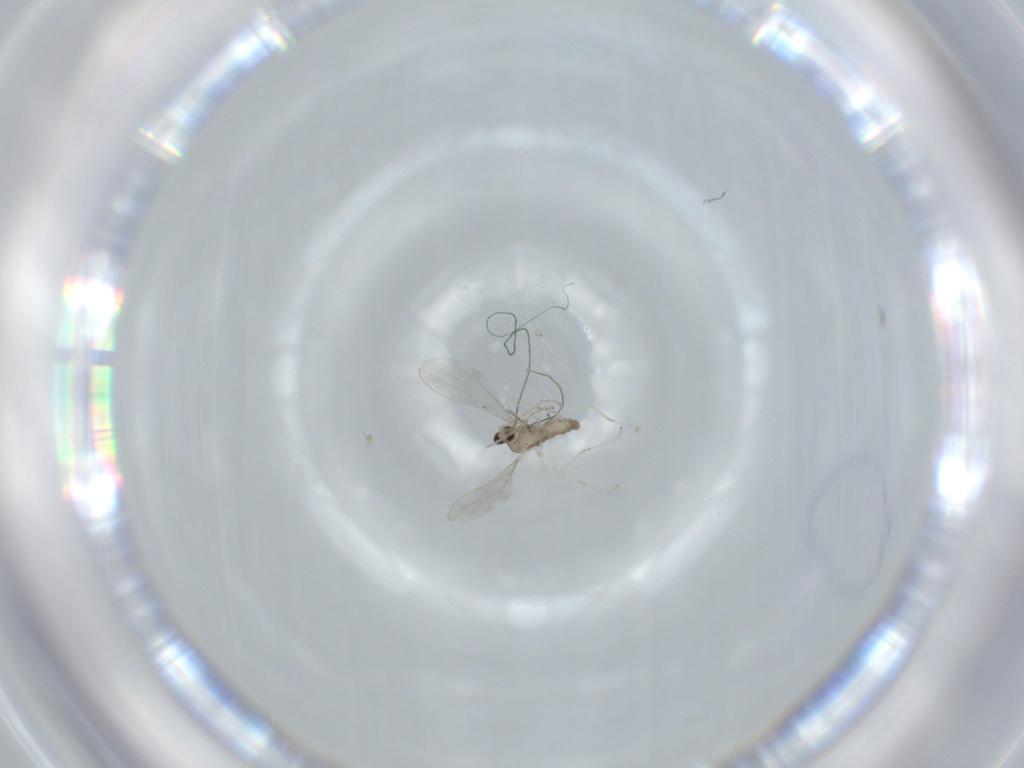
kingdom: Animalia
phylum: Arthropoda
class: Insecta
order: Diptera
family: Cecidomyiidae
